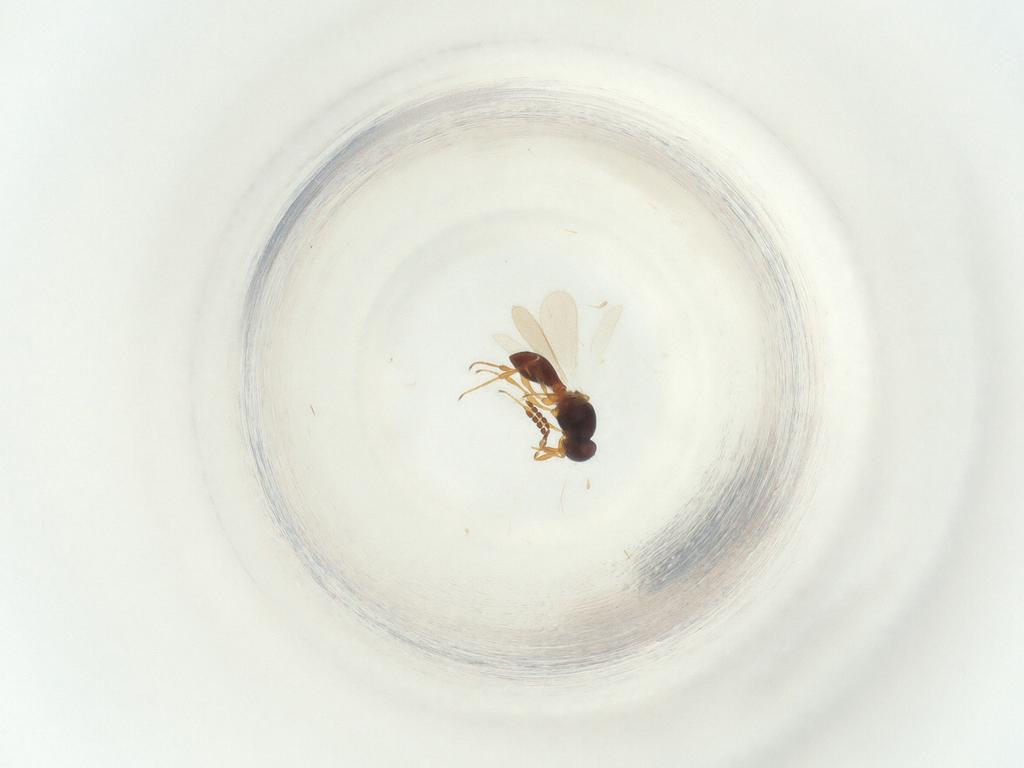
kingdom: Animalia
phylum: Arthropoda
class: Insecta
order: Hymenoptera
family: Platygastridae
